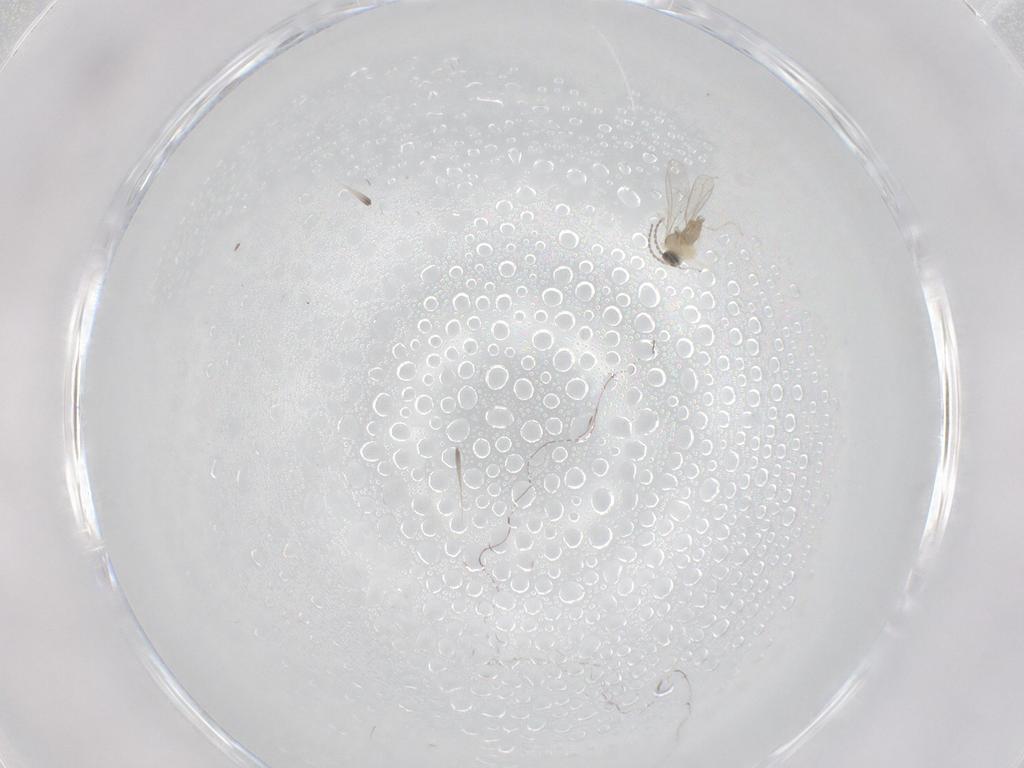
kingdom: Animalia
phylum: Arthropoda
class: Insecta
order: Diptera
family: Cecidomyiidae
